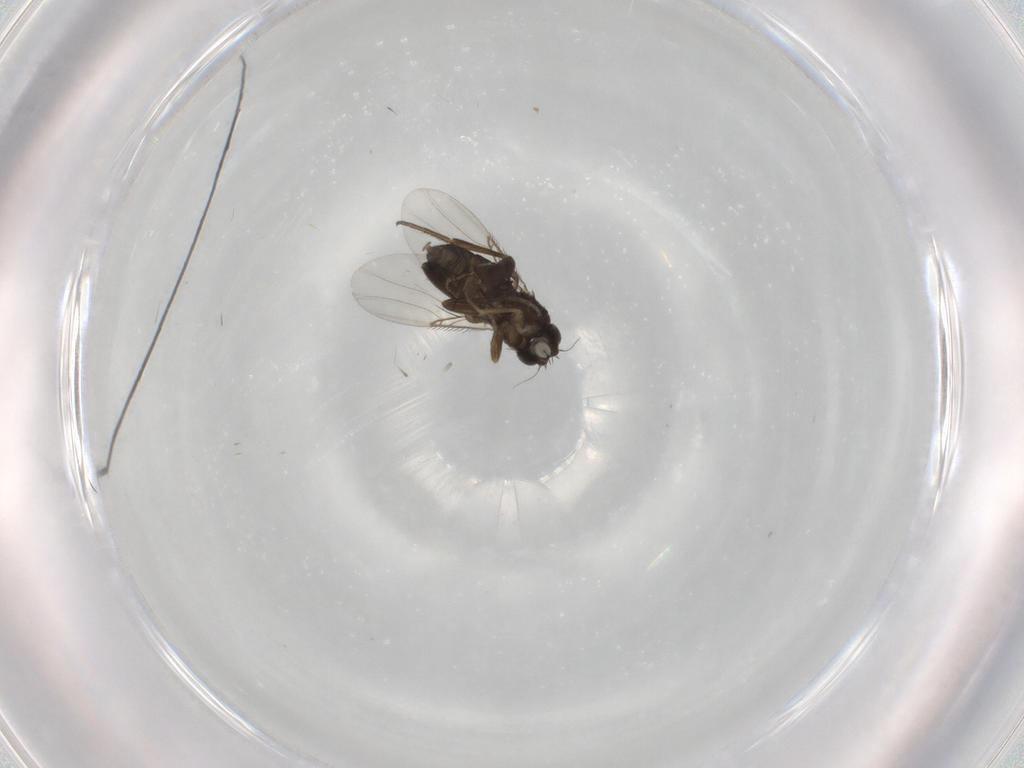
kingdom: Animalia
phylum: Arthropoda
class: Insecta
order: Diptera
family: Phoridae
